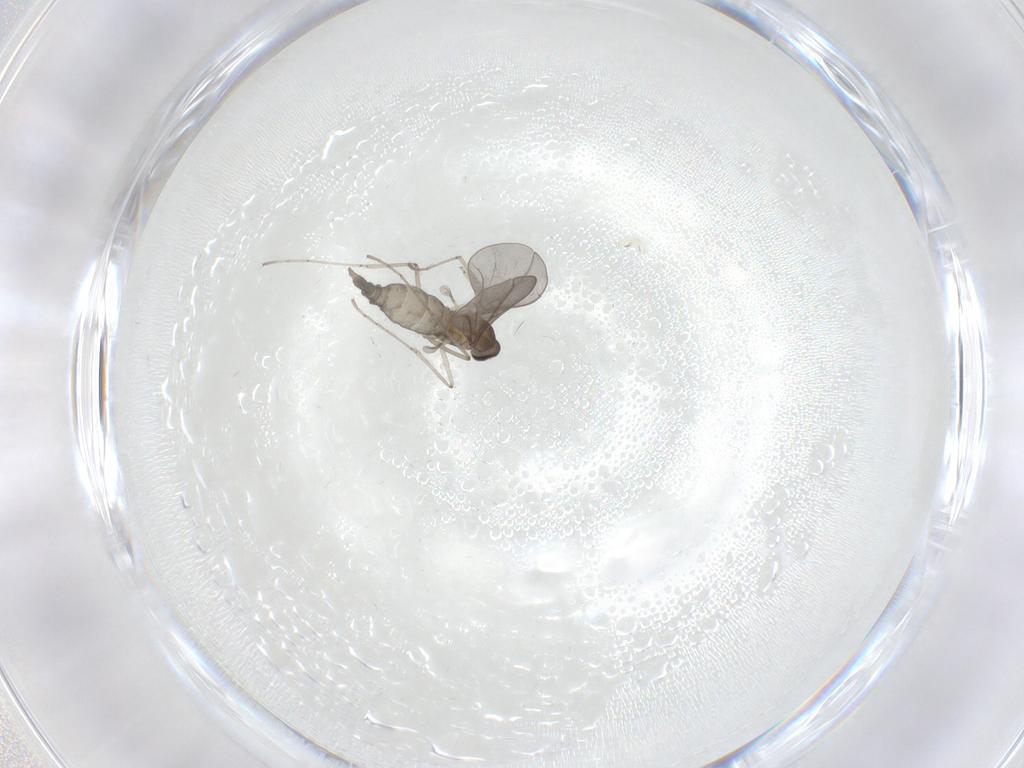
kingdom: Animalia
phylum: Arthropoda
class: Insecta
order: Diptera
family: Cecidomyiidae
